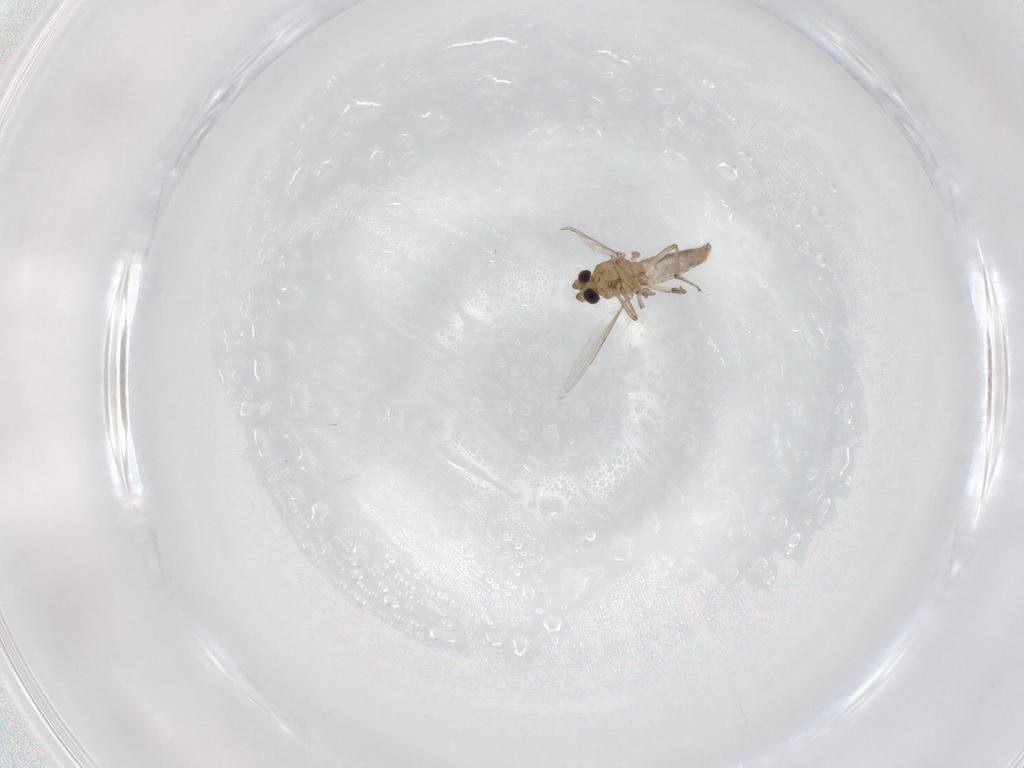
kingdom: Animalia
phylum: Arthropoda
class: Insecta
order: Diptera
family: Ceratopogonidae
